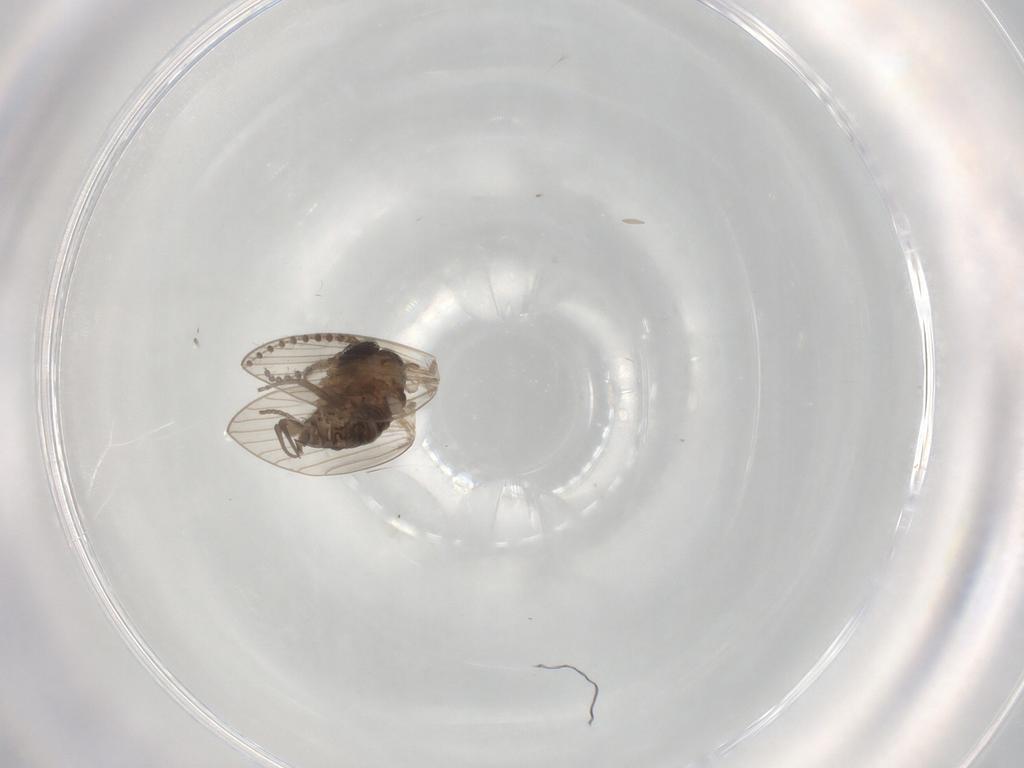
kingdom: Animalia
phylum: Arthropoda
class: Insecta
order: Diptera
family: Psychodidae
